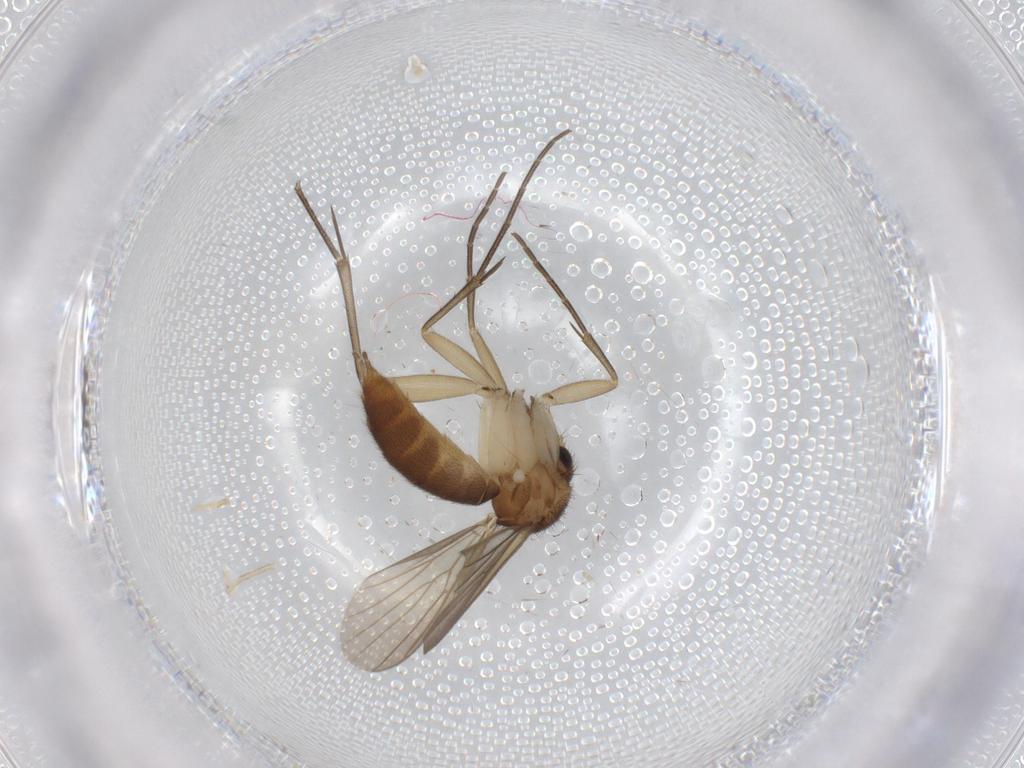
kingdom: Animalia
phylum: Arthropoda
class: Insecta
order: Diptera
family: Mycetophilidae
